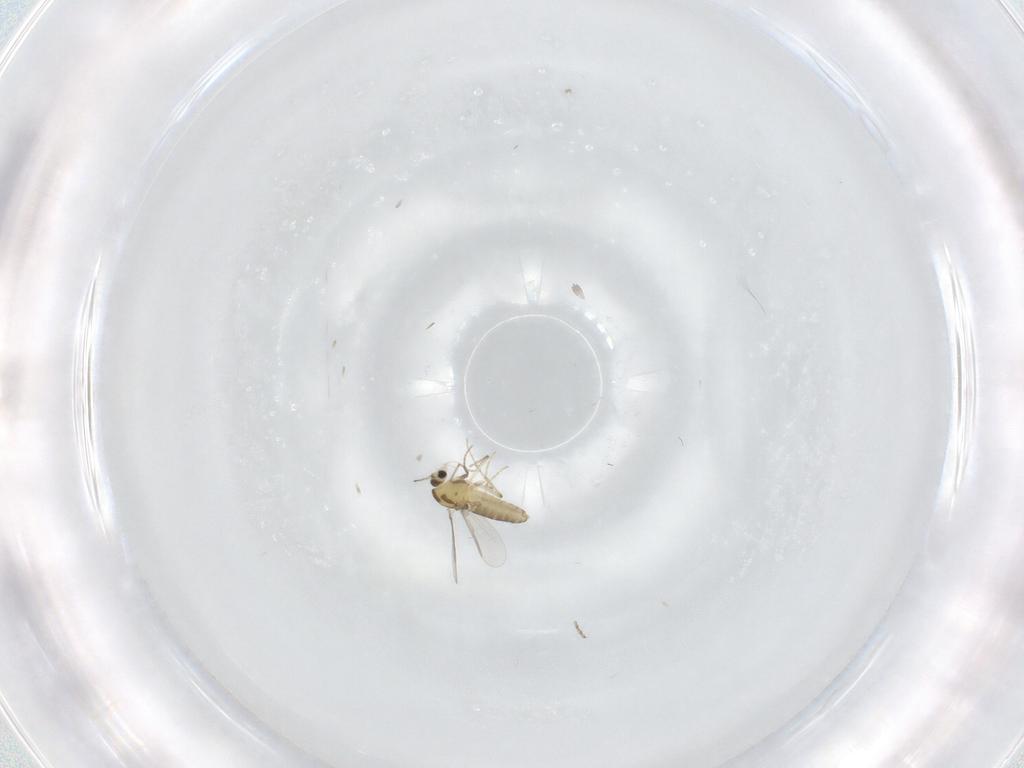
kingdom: Animalia
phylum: Arthropoda
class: Insecta
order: Diptera
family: Chironomidae
